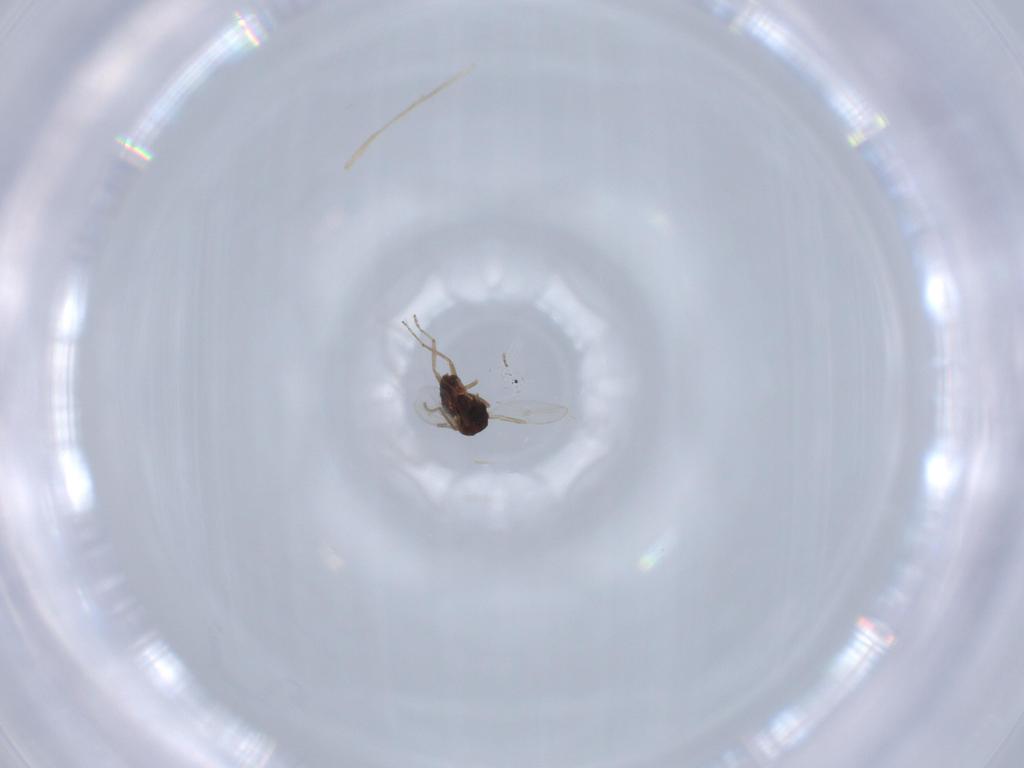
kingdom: Animalia
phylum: Arthropoda
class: Insecta
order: Diptera
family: Ceratopogonidae
